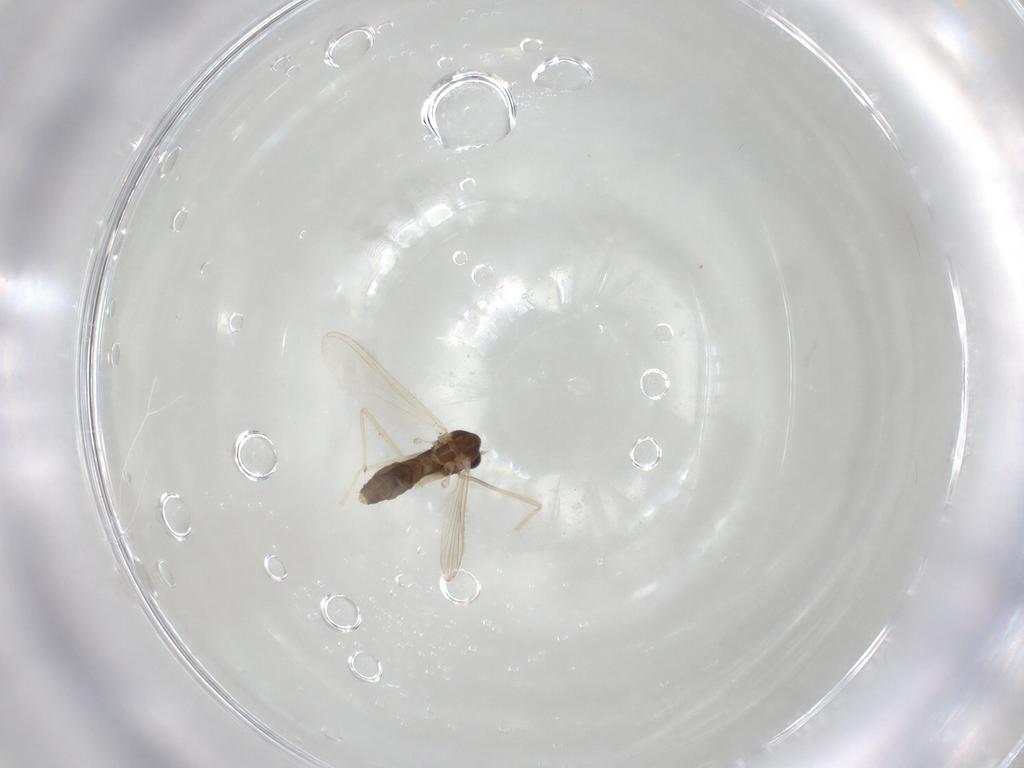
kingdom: Animalia
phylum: Arthropoda
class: Insecta
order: Diptera
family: Chironomidae
